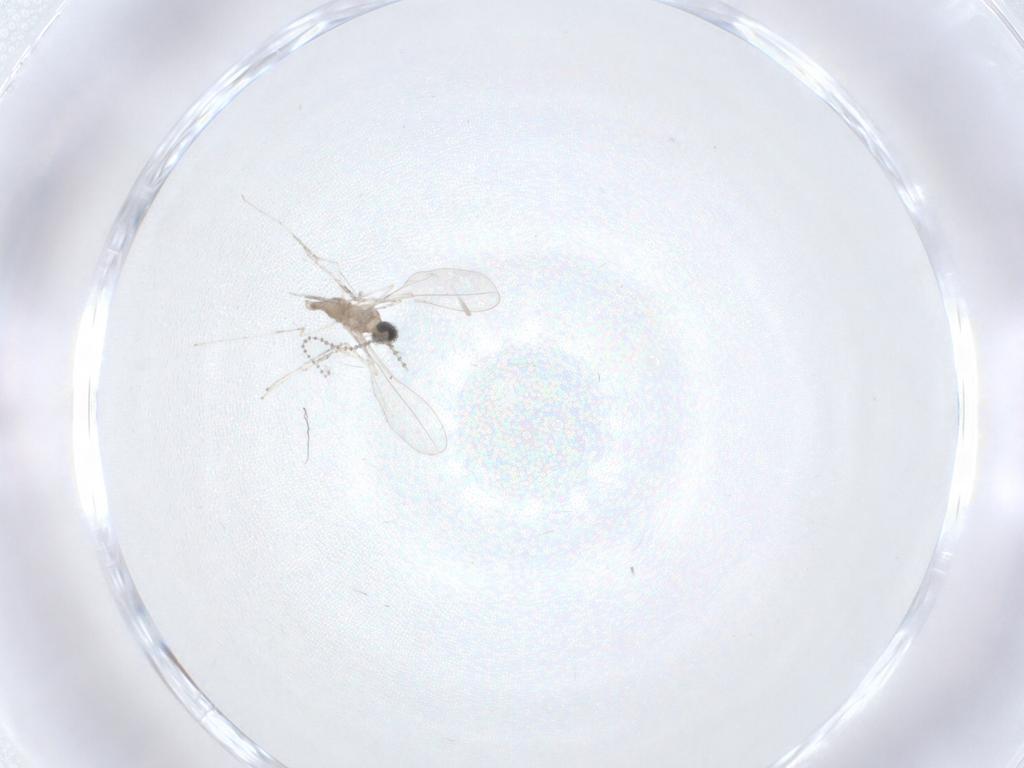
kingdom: Animalia
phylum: Arthropoda
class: Insecta
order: Diptera
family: Cecidomyiidae
